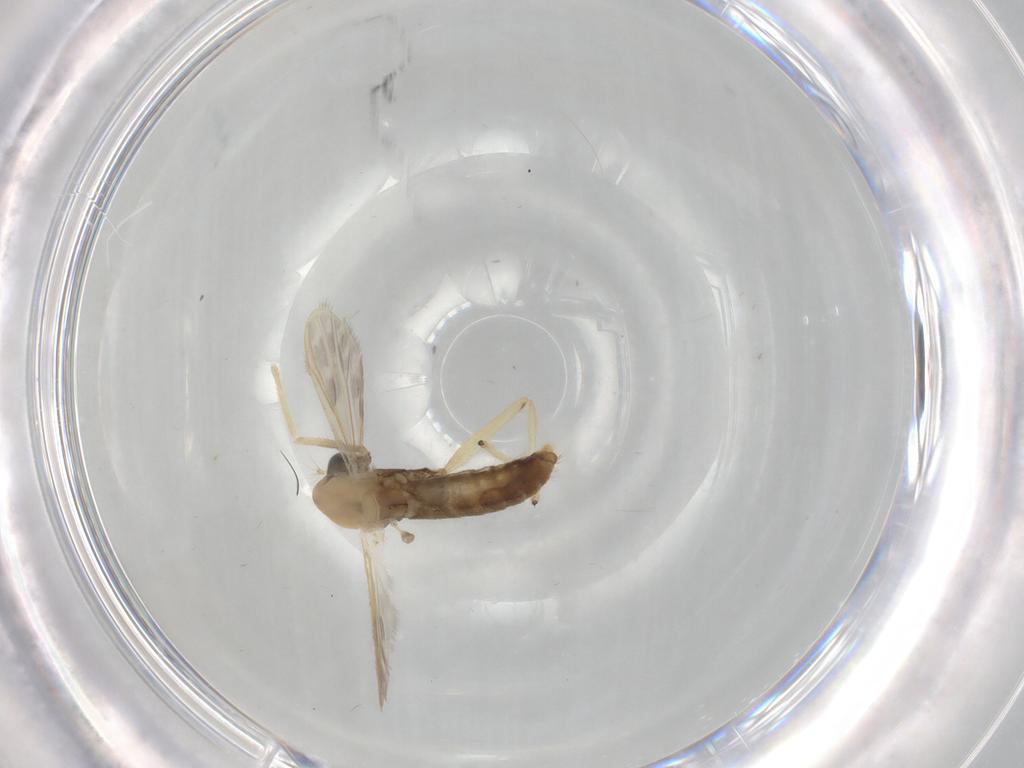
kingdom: Animalia
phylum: Arthropoda
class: Insecta
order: Diptera
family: Chironomidae
